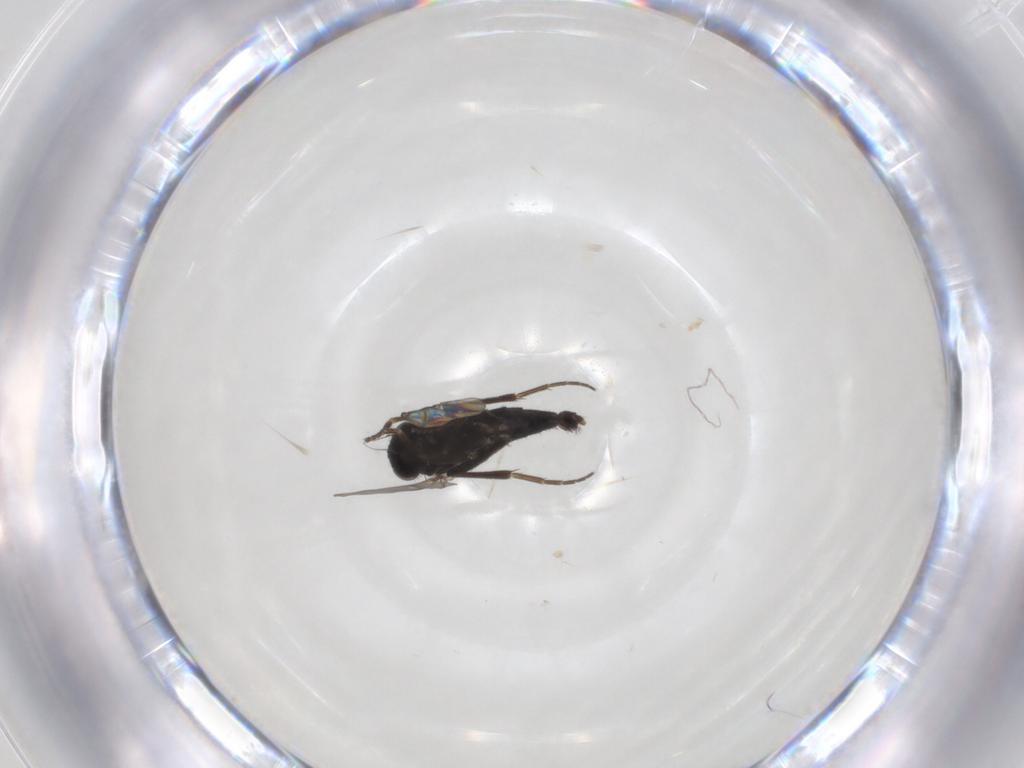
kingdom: Animalia
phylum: Arthropoda
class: Insecta
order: Diptera
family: Phoridae
